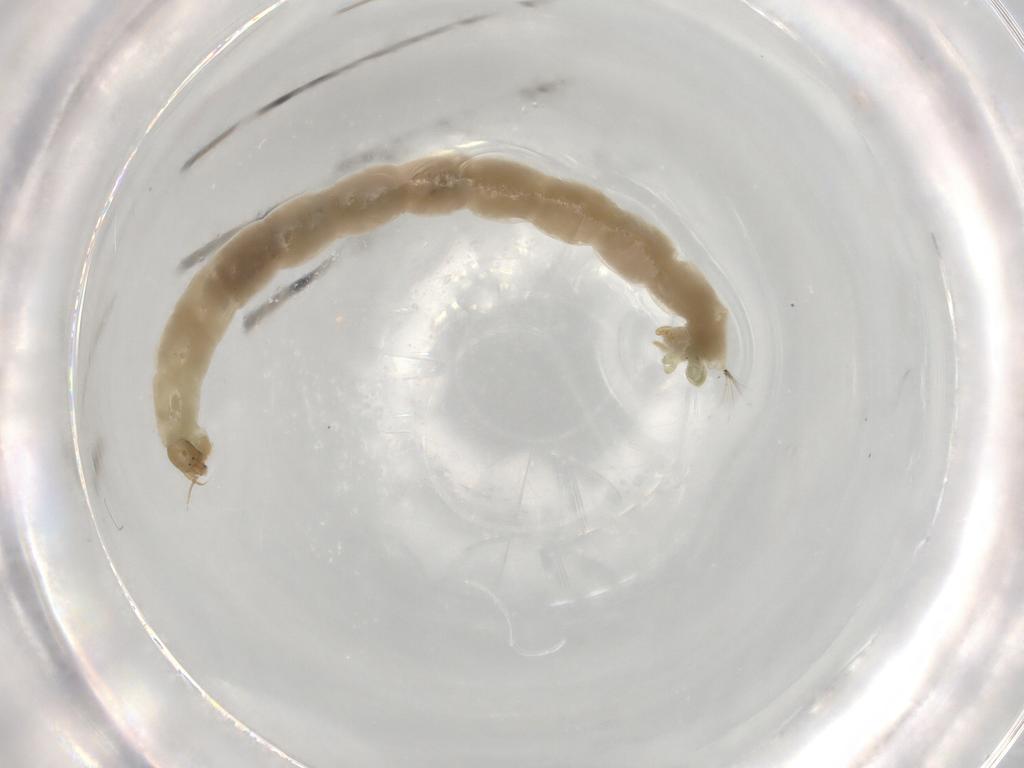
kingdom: Animalia
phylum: Arthropoda
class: Insecta
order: Diptera
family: Chironomidae
